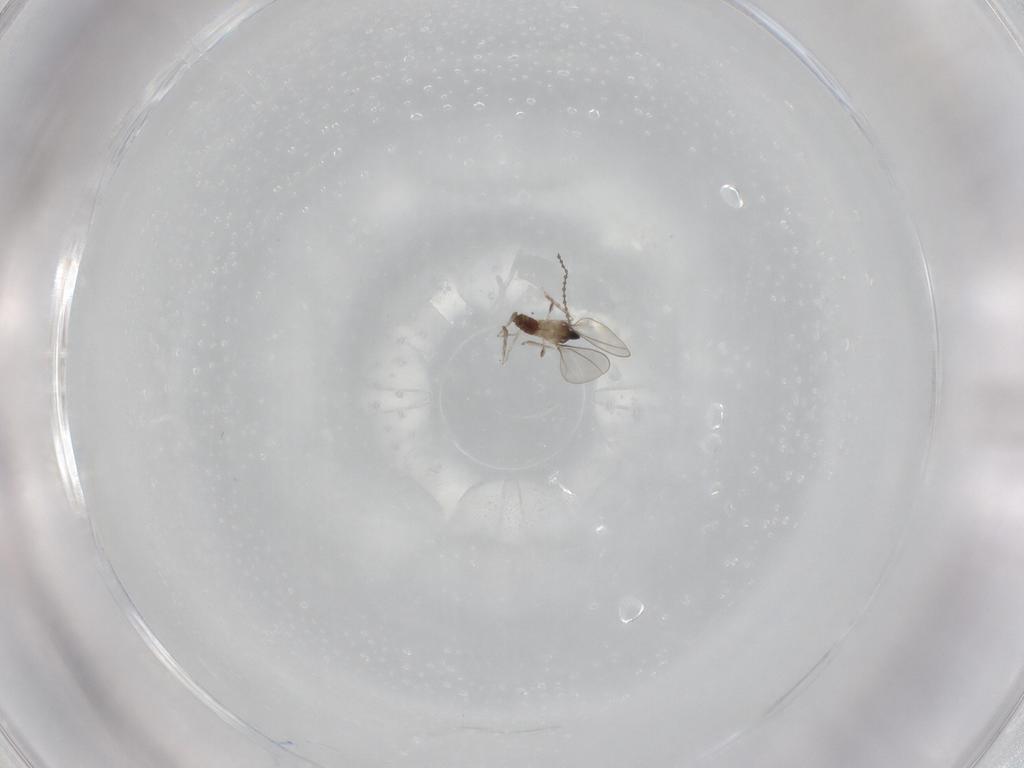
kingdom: Animalia
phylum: Arthropoda
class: Insecta
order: Diptera
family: Cecidomyiidae
